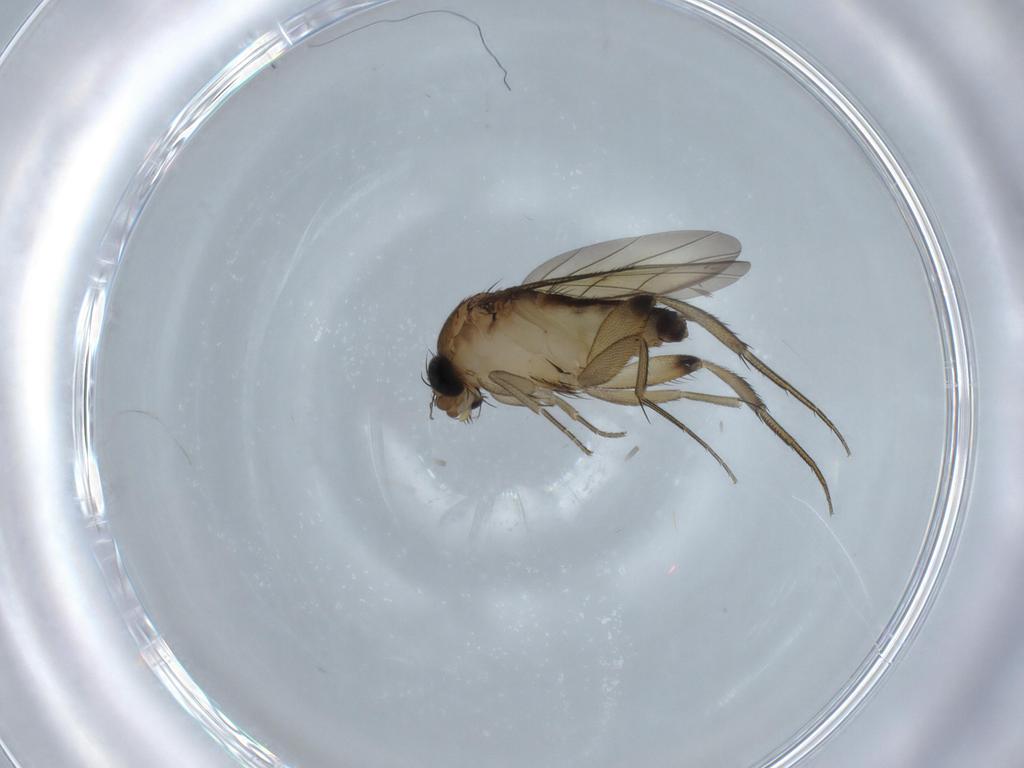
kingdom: Animalia
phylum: Arthropoda
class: Insecta
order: Diptera
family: Phoridae
